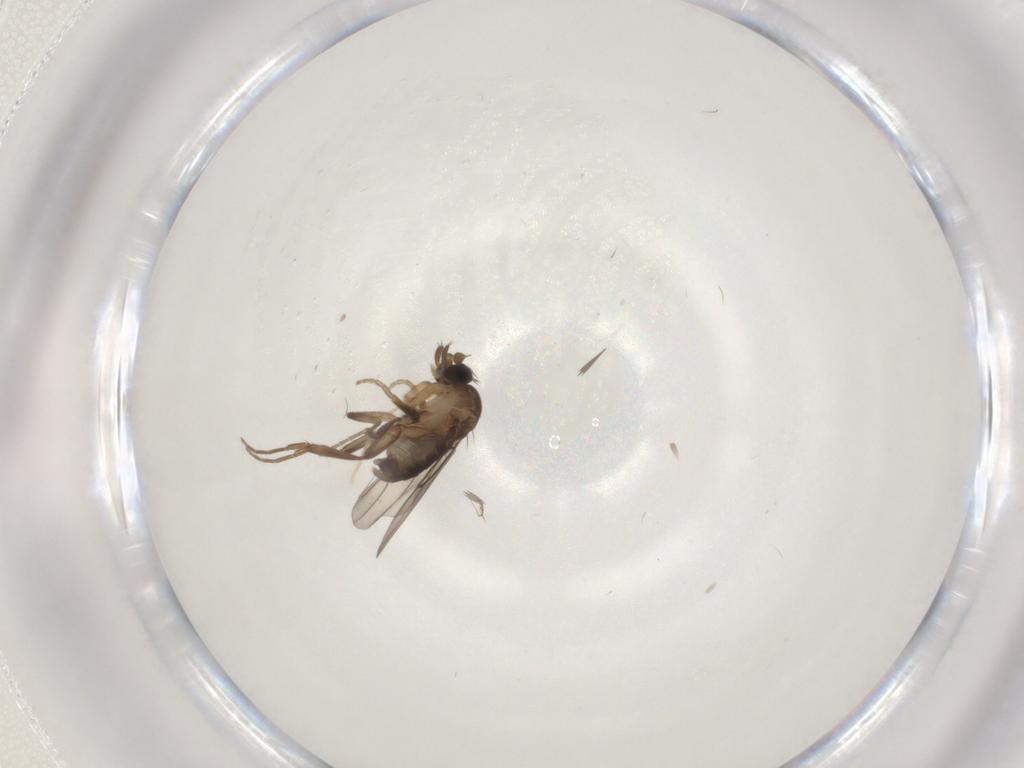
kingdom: Animalia
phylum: Arthropoda
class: Insecta
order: Diptera
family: Phoridae
